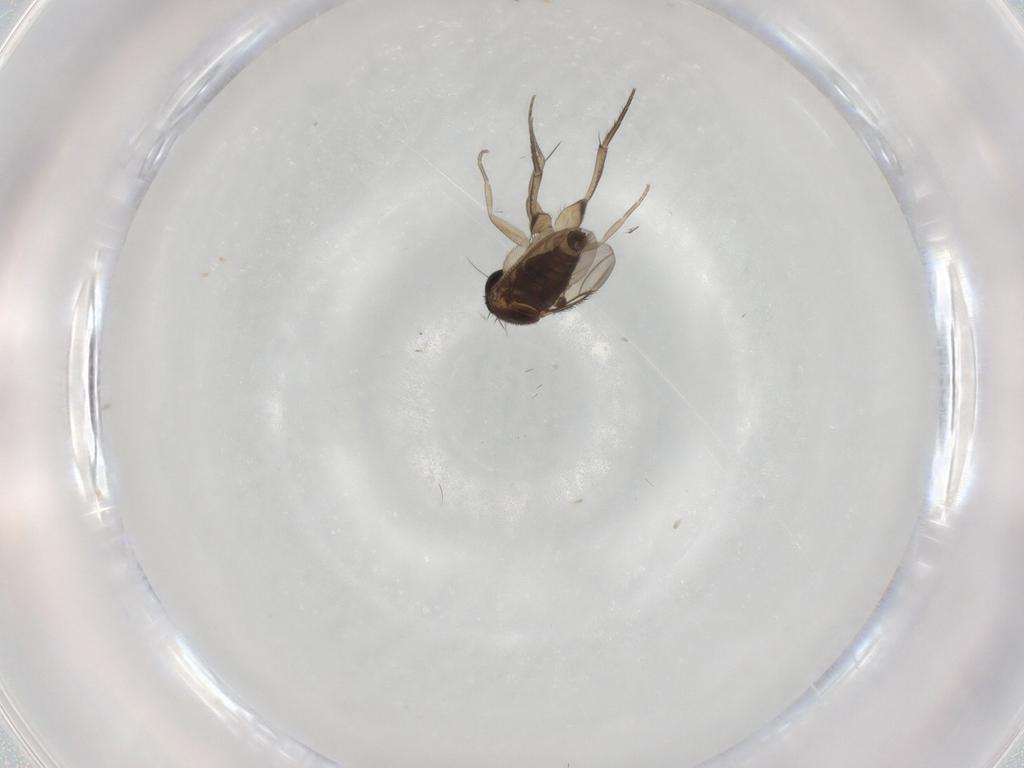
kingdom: Animalia
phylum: Arthropoda
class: Insecta
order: Diptera
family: Phoridae
